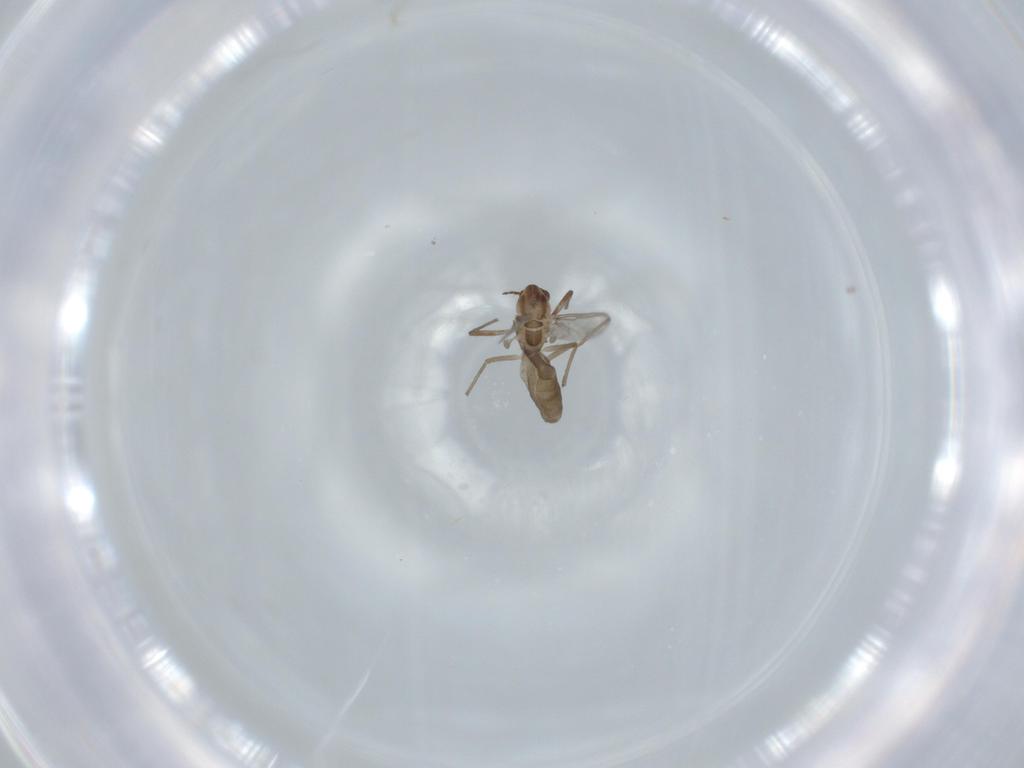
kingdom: Animalia
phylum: Arthropoda
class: Insecta
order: Diptera
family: Chironomidae
